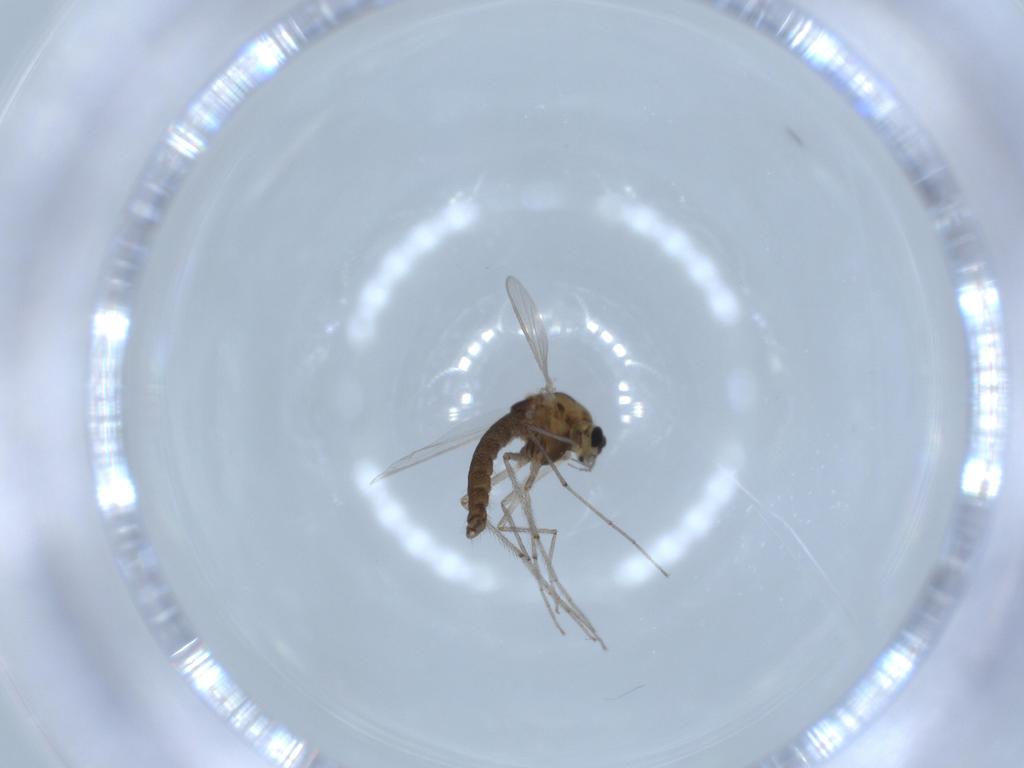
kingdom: Animalia
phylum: Arthropoda
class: Insecta
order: Diptera
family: Chironomidae
